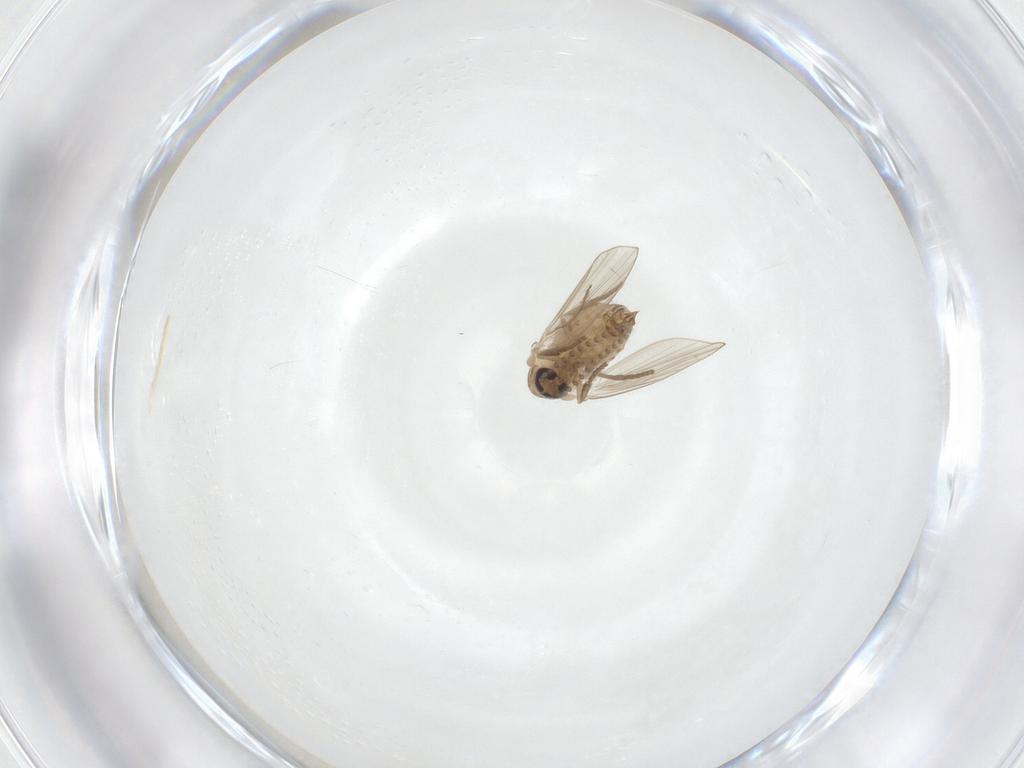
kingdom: Animalia
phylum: Arthropoda
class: Insecta
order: Diptera
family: Psychodidae
